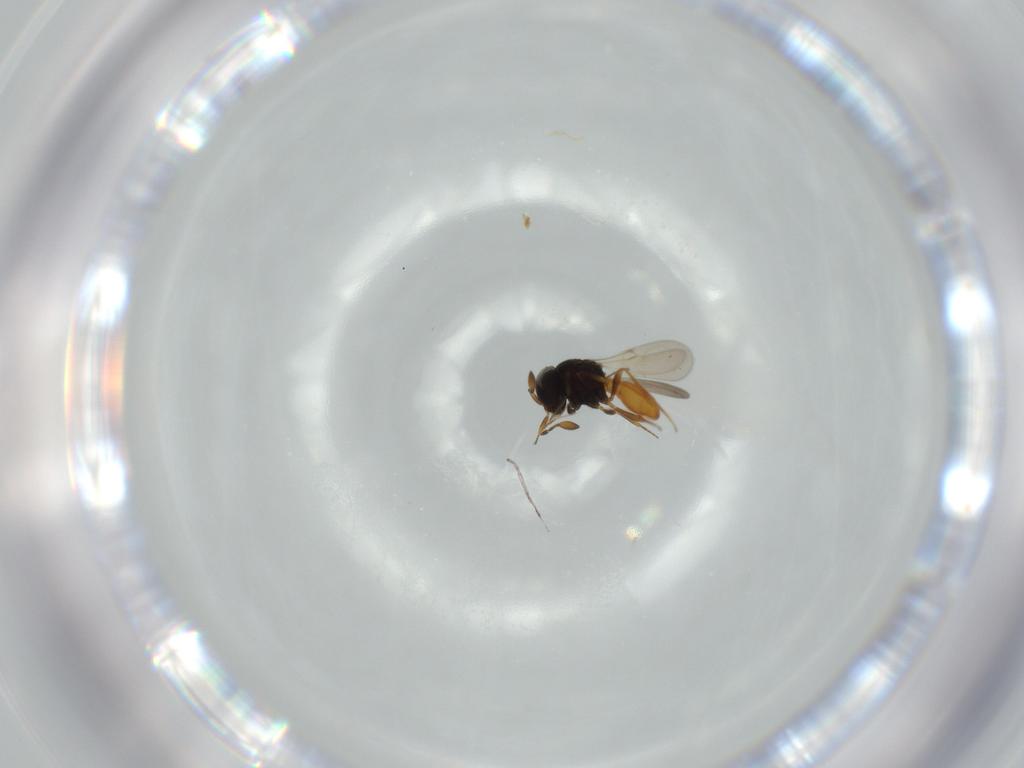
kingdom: Animalia
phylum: Arthropoda
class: Insecta
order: Hymenoptera
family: Scelionidae
